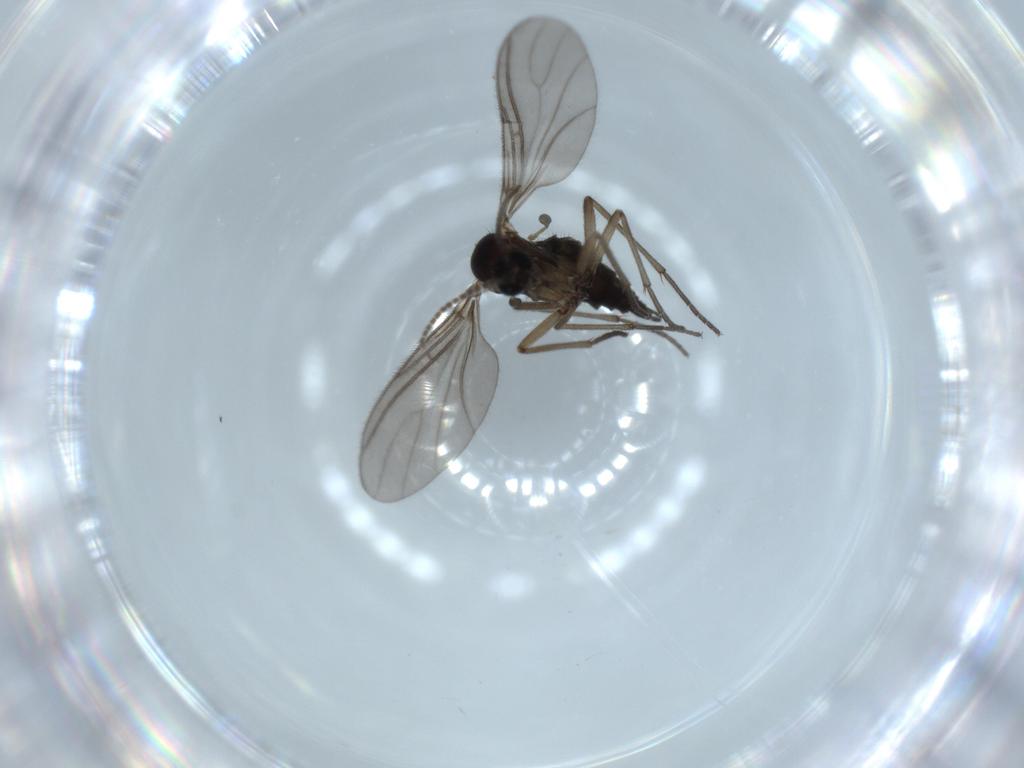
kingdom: Animalia
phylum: Arthropoda
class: Insecta
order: Diptera
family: Sciaridae
